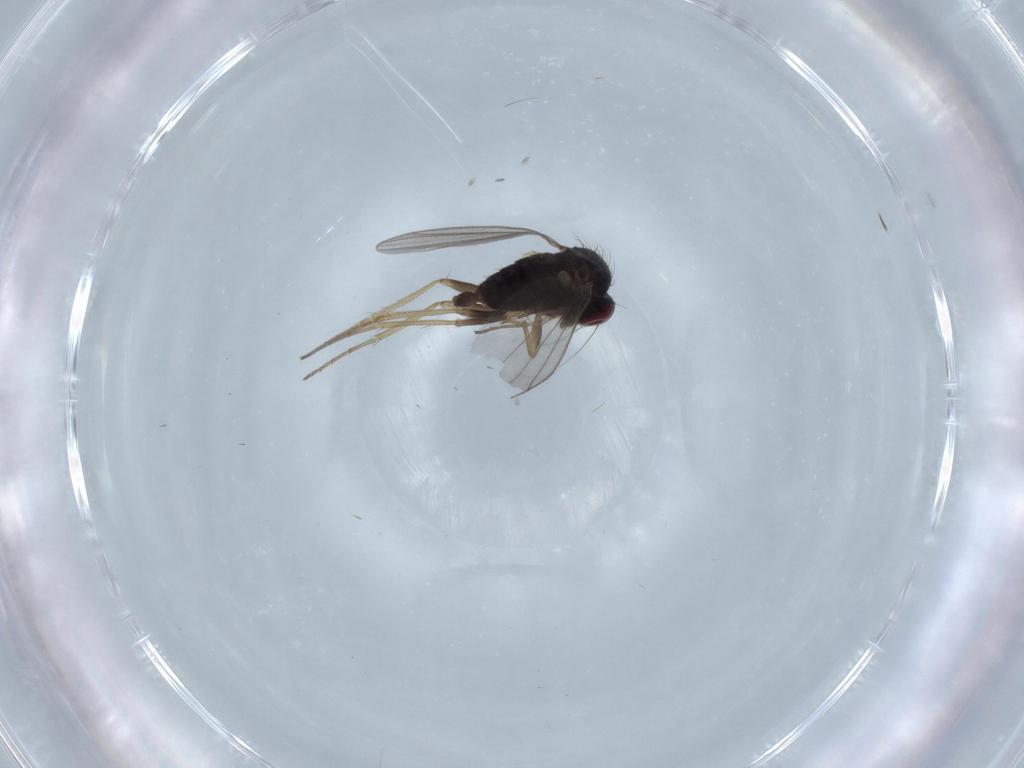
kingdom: Animalia
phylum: Arthropoda
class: Insecta
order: Diptera
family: Dolichopodidae
